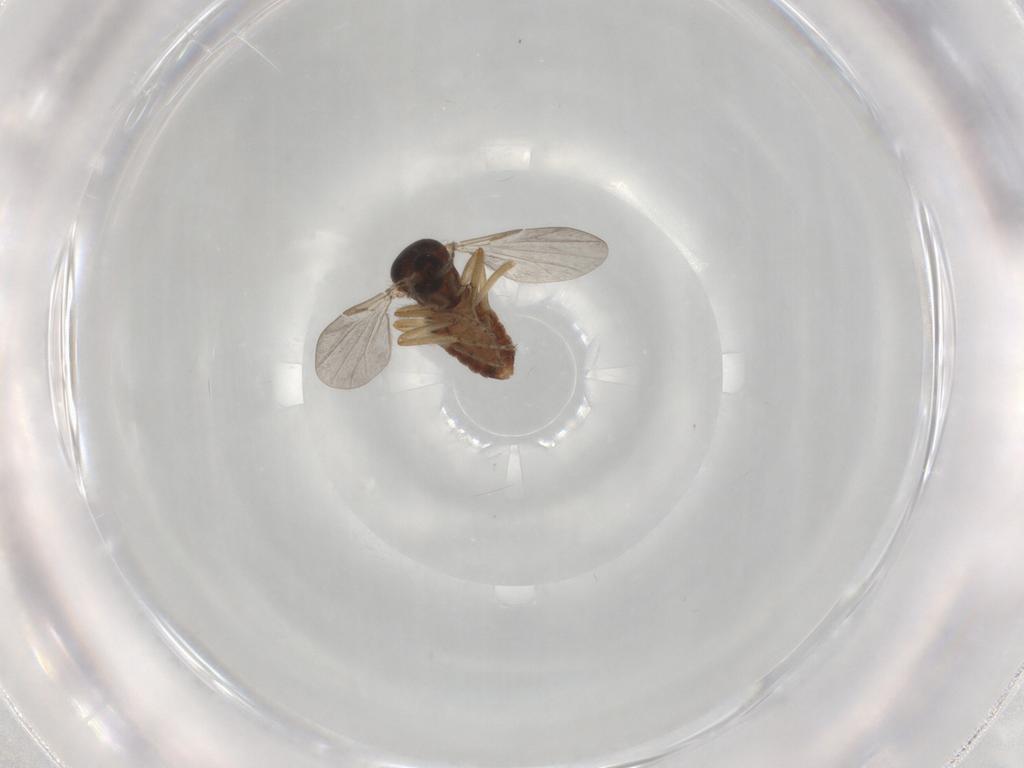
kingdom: Animalia
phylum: Arthropoda
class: Insecta
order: Diptera
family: Ceratopogonidae
